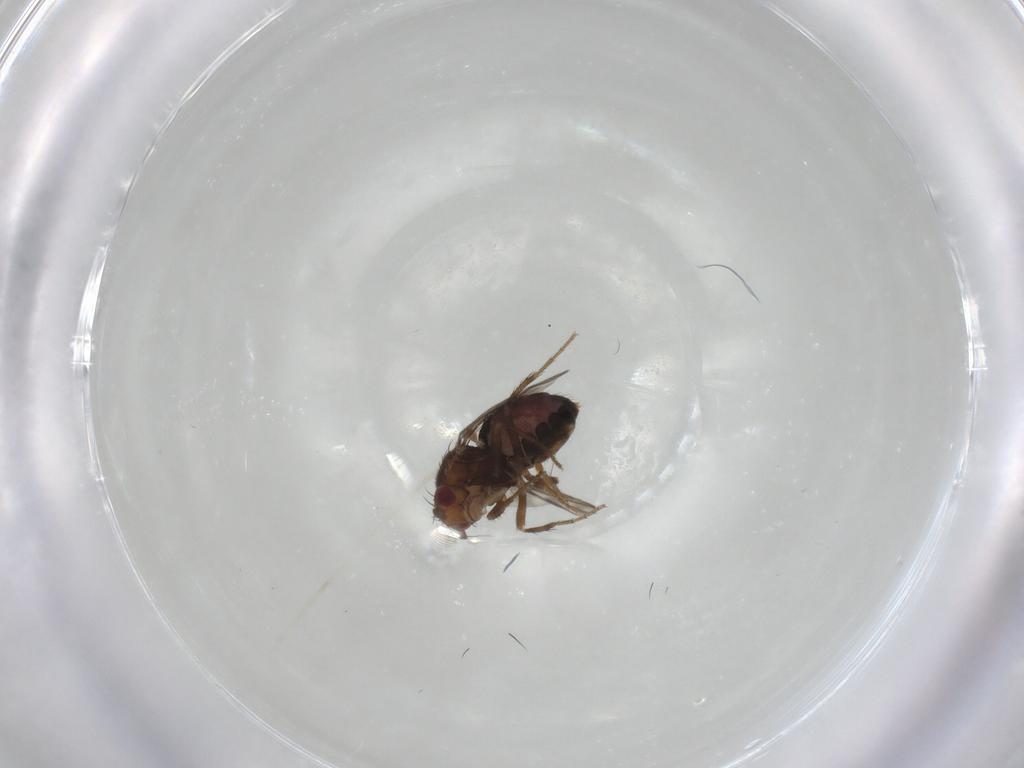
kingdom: Animalia
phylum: Arthropoda
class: Insecta
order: Diptera
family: Sphaeroceridae
